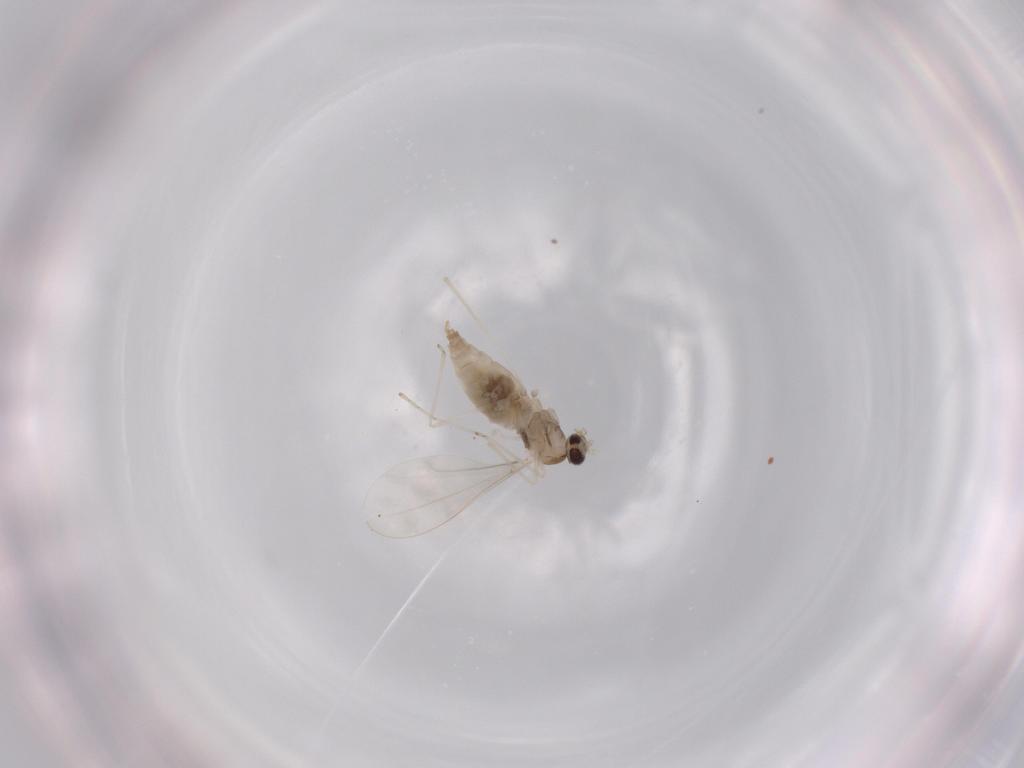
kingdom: Animalia
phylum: Arthropoda
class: Insecta
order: Diptera
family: Cecidomyiidae
